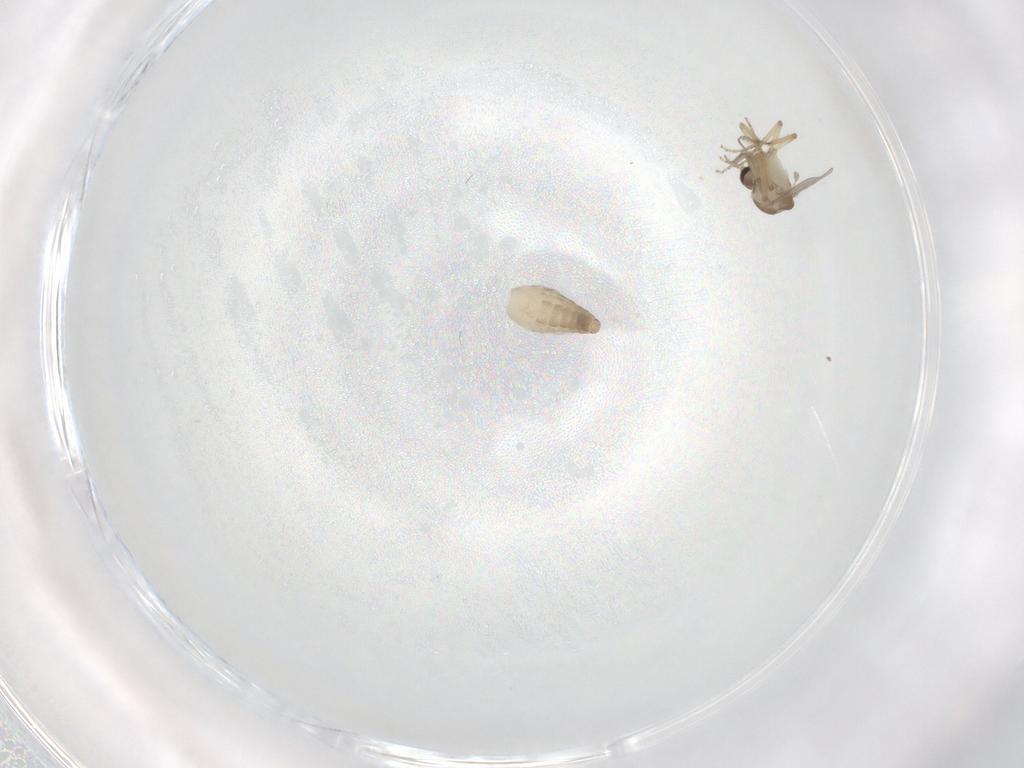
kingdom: Animalia
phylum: Arthropoda
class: Insecta
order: Diptera
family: Ceratopogonidae
